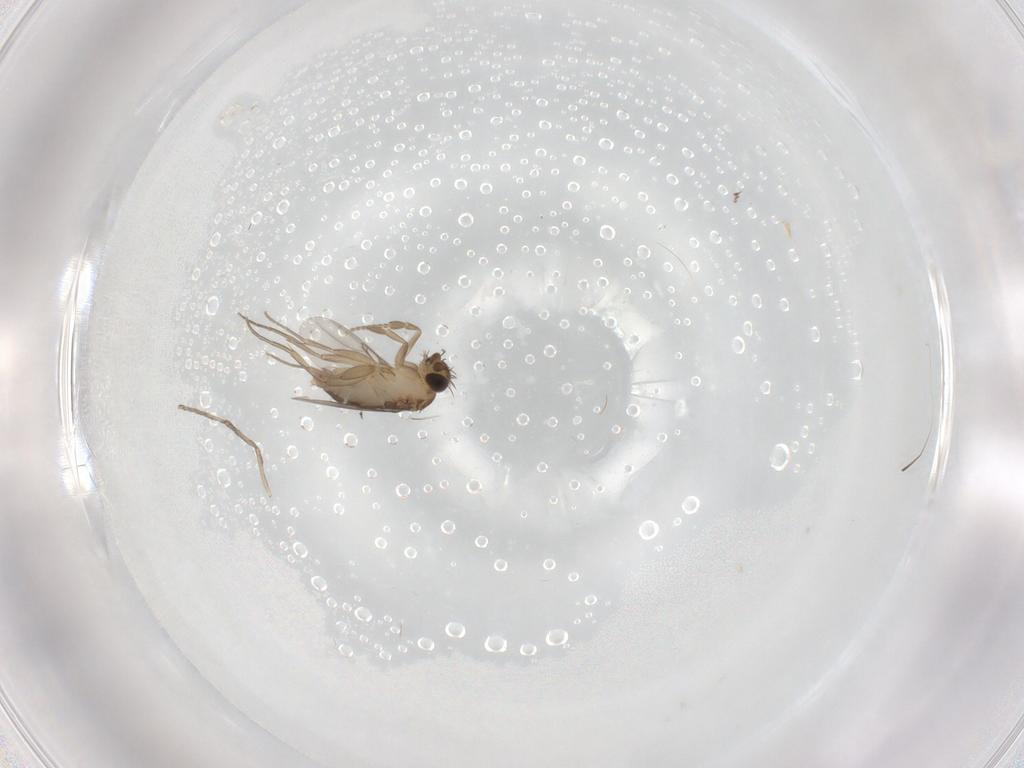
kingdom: Animalia
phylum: Arthropoda
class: Insecta
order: Diptera
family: Phoridae
